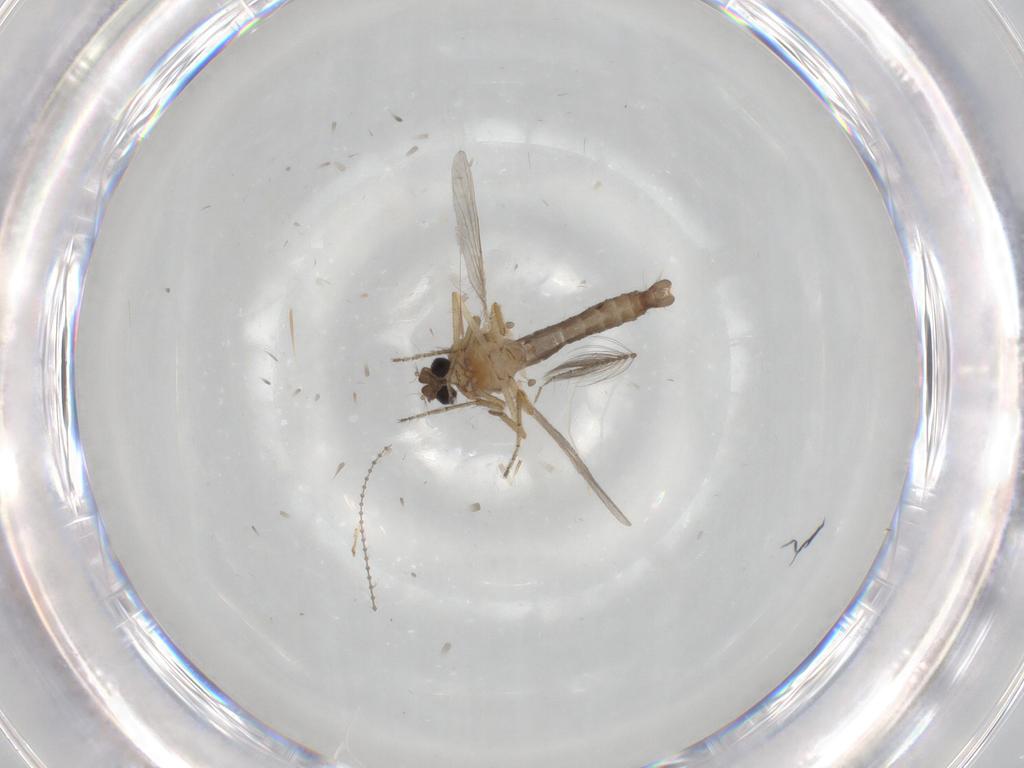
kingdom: Animalia
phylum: Arthropoda
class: Insecta
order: Diptera
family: Ceratopogonidae
